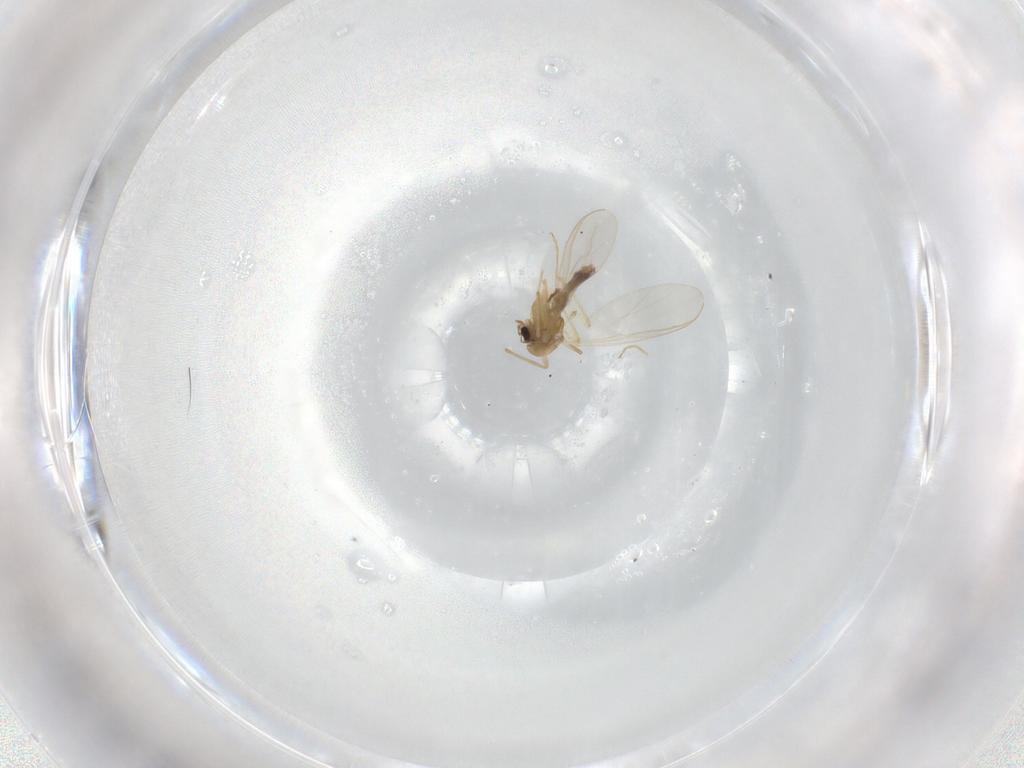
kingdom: Animalia
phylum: Arthropoda
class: Insecta
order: Diptera
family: Chironomidae
